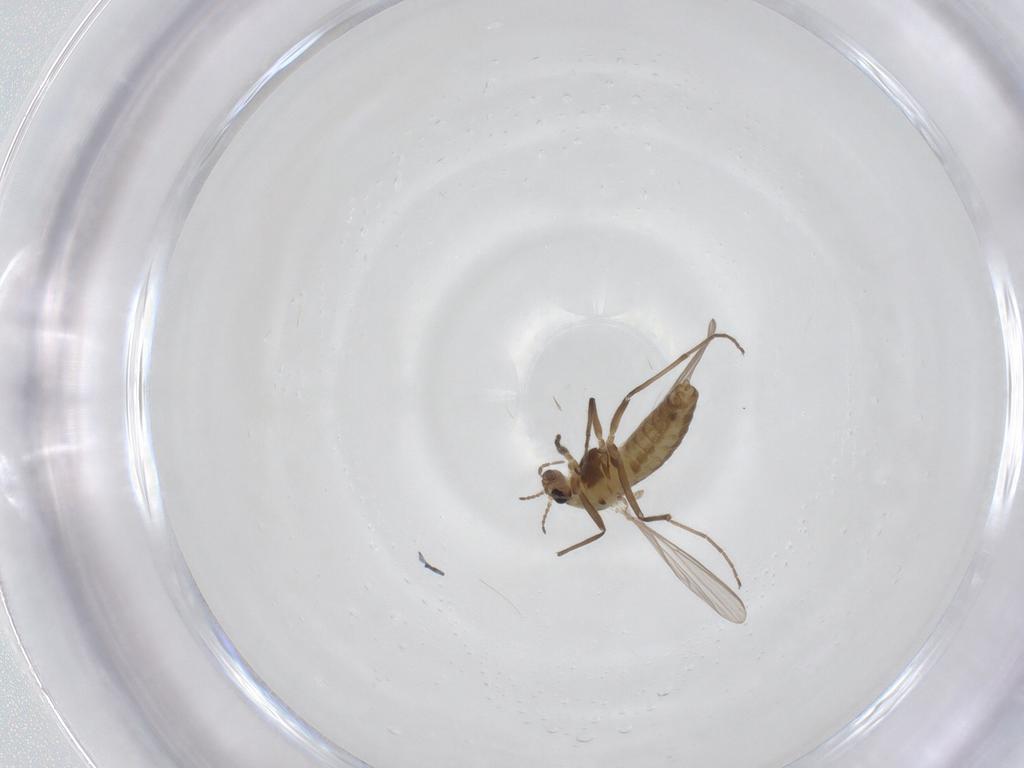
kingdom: Animalia
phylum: Arthropoda
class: Insecta
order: Diptera
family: Chironomidae
